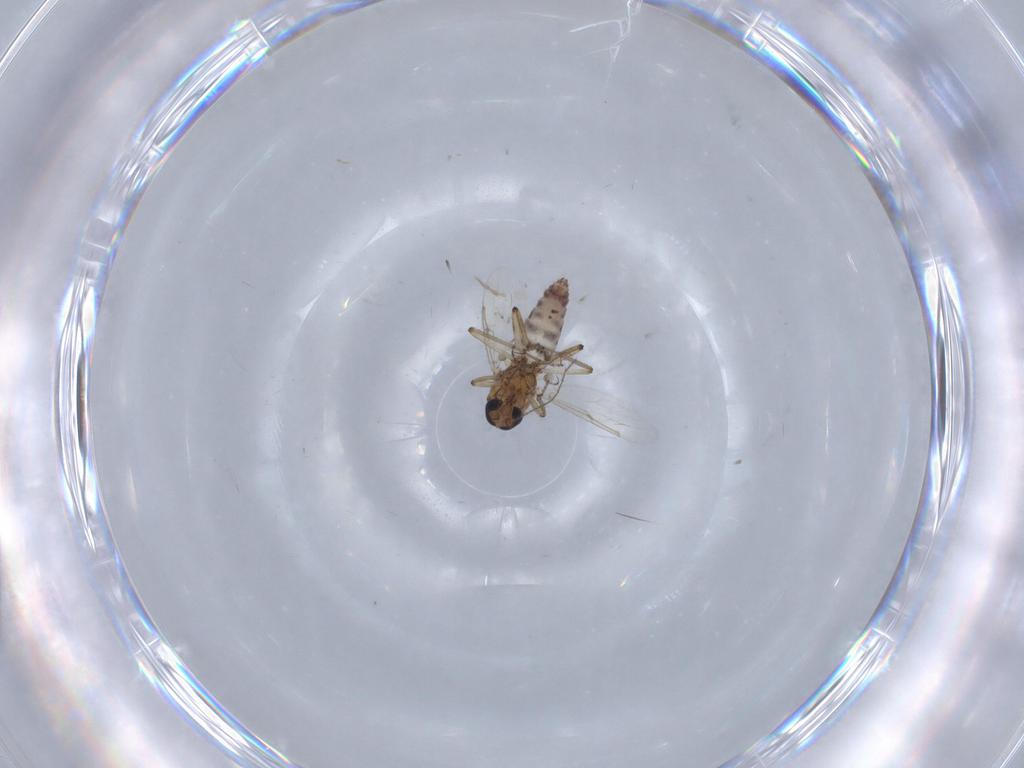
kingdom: Animalia
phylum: Arthropoda
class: Insecta
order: Diptera
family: Ceratopogonidae
